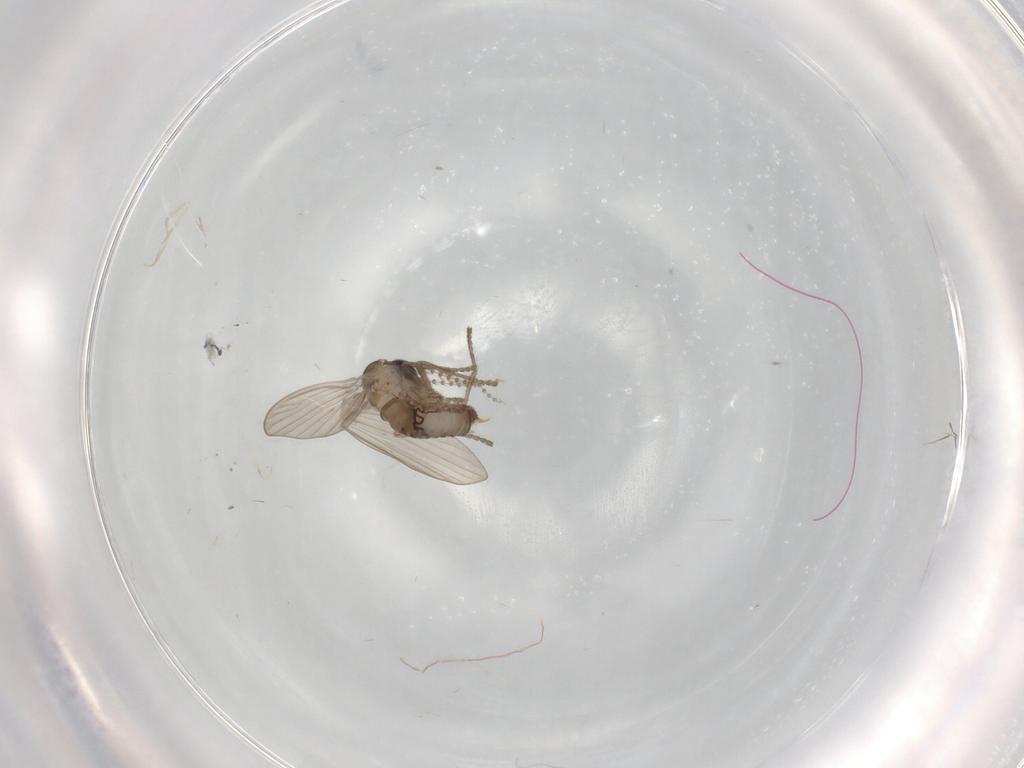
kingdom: Animalia
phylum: Arthropoda
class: Insecta
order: Diptera
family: Psychodidae
